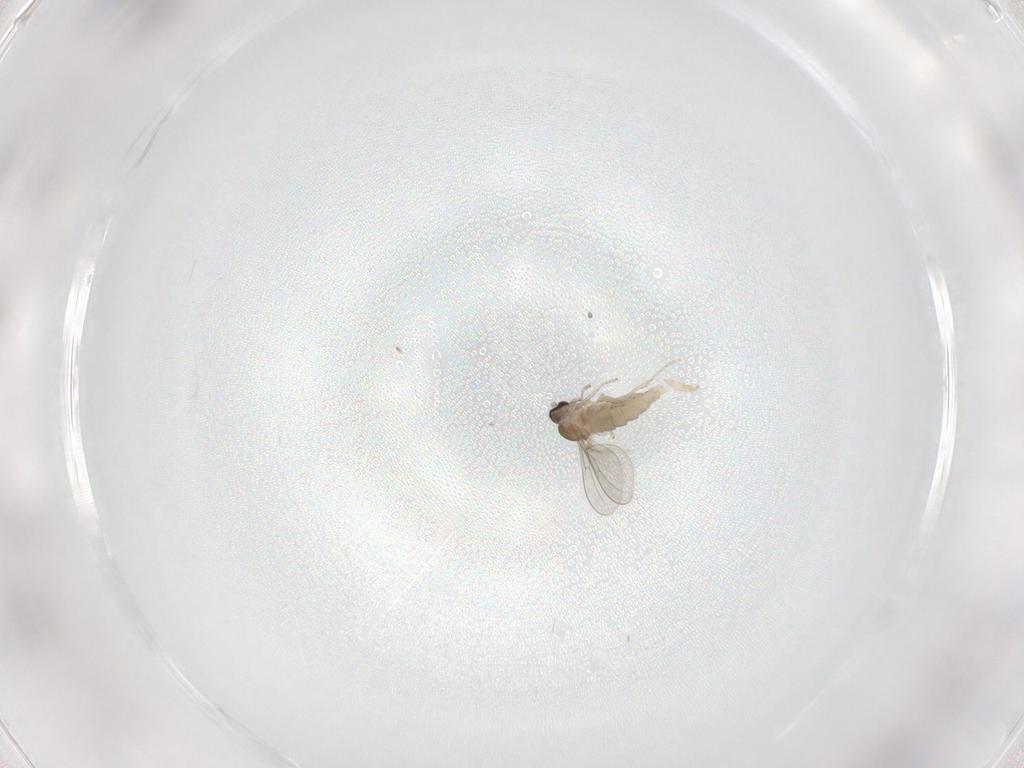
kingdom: Animalia
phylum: Arthropoda
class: Insecta
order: Diptera
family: Cecidomyiidae
